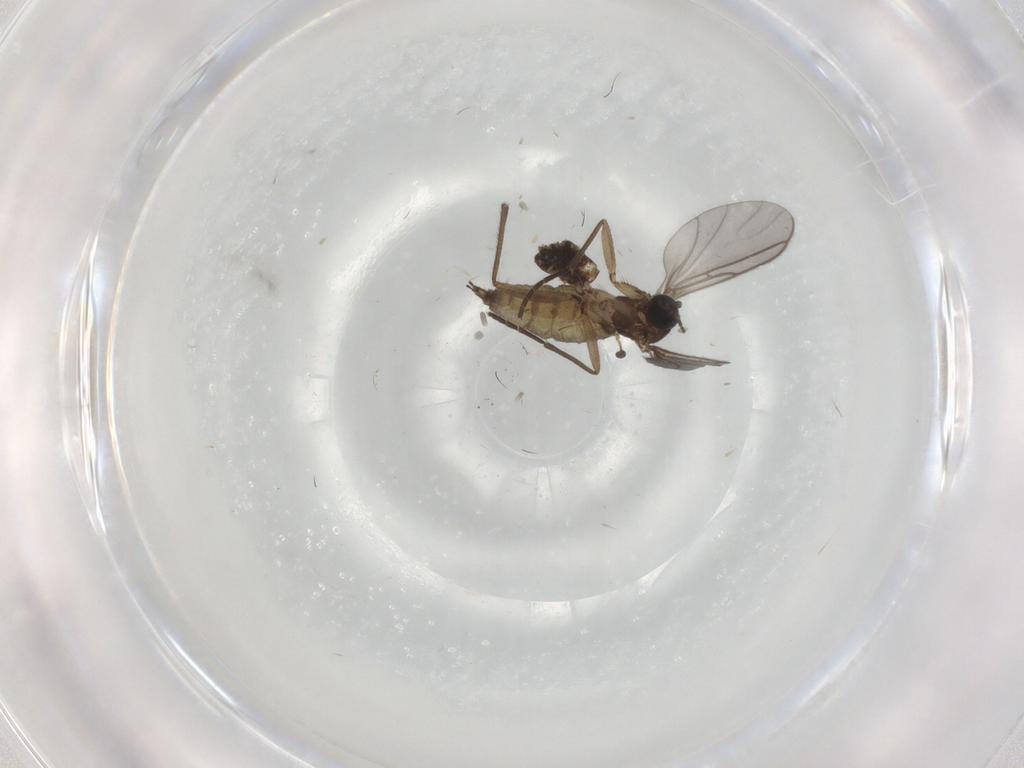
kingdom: Animalia
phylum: Arthropoda
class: Insecta
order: Diptera
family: Sciaridae
